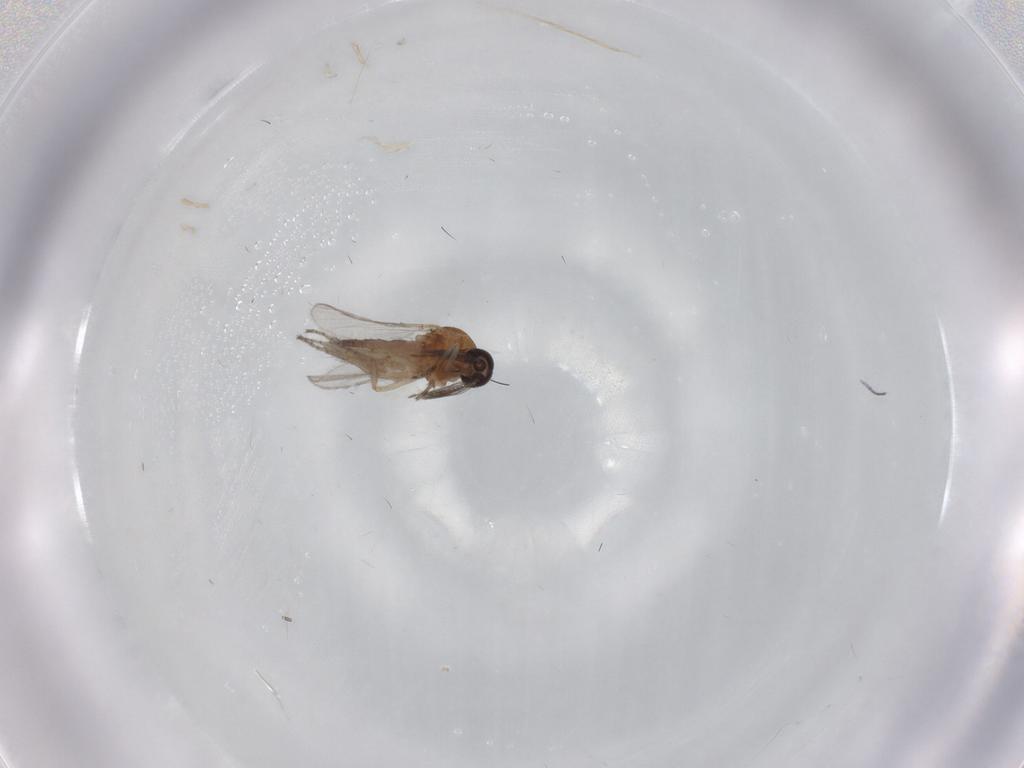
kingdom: Animalia
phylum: Arthropoda
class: Insecta
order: Diptera
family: Ceratopogonidae
